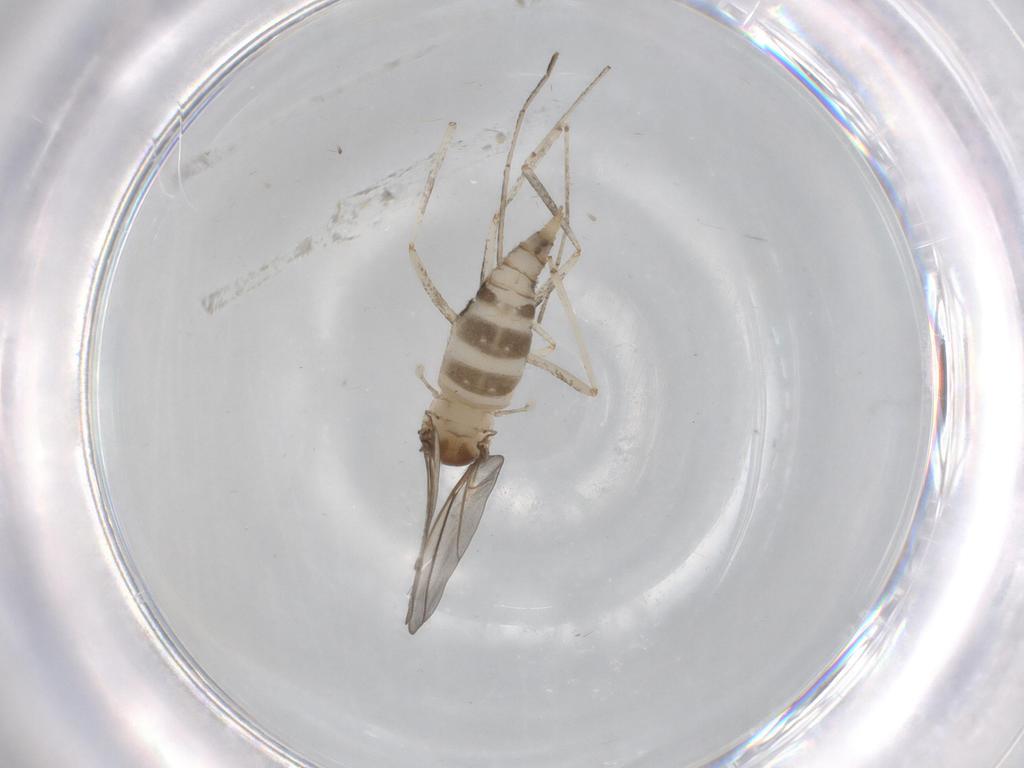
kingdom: Animalia
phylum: Arthropoda
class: Insecta
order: Diptera
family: Cecidomyiidae
